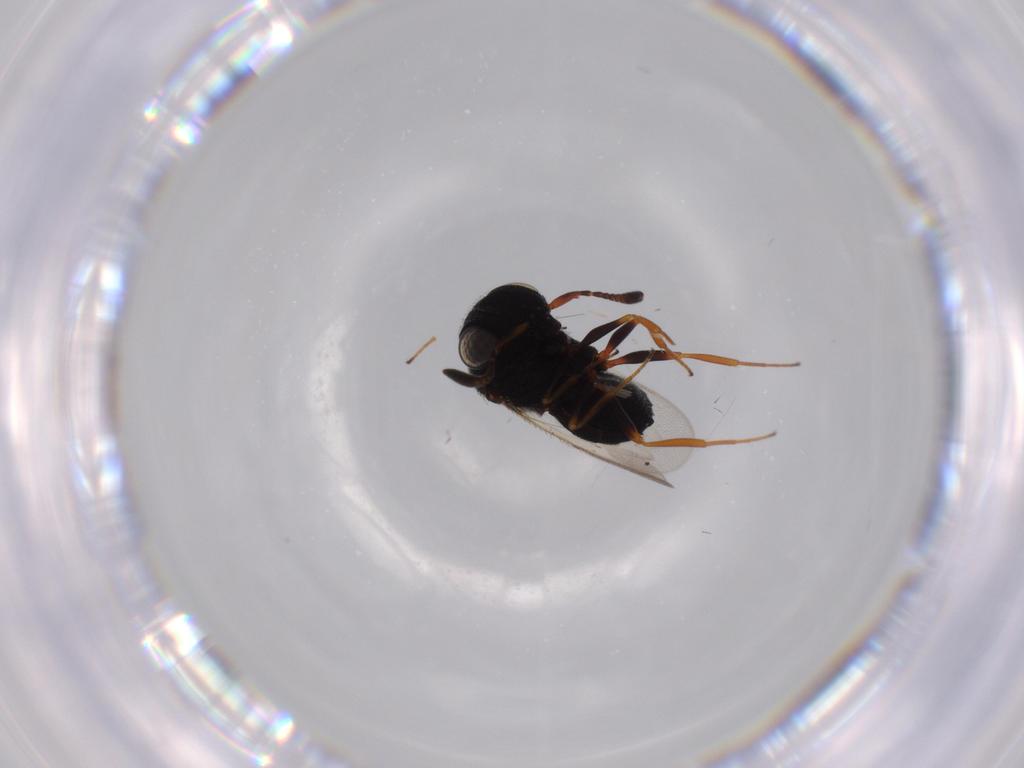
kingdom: Animalia
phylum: Arthropoda
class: Insecta
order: Hymenoptera
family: Scelionidae
